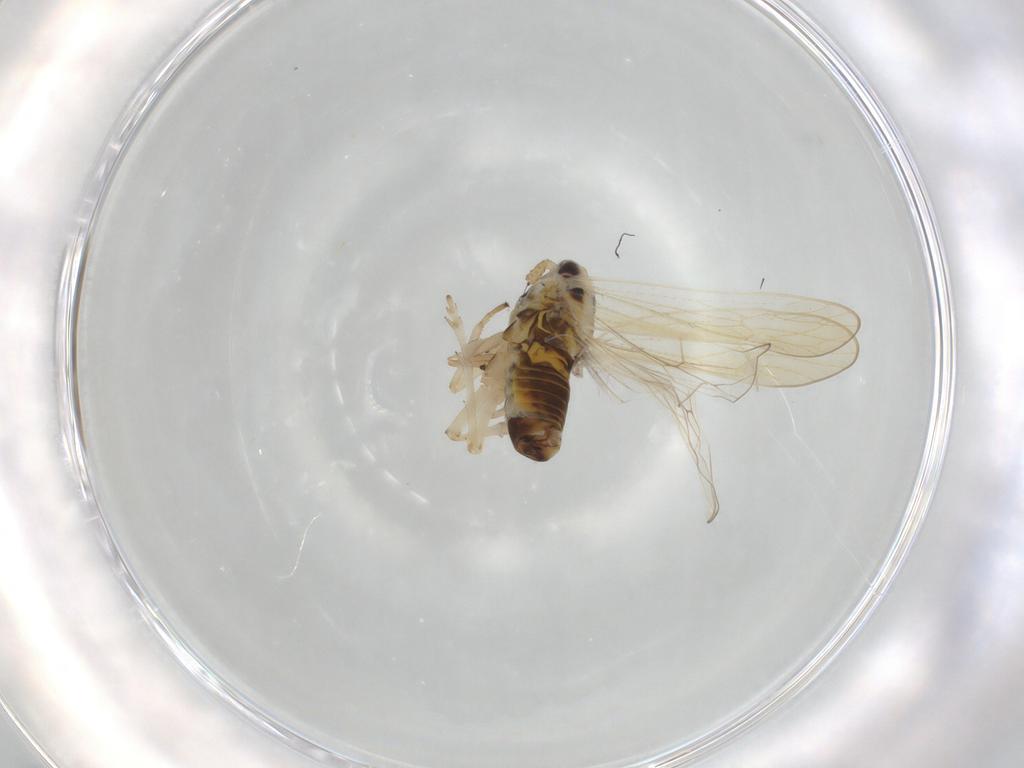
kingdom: Animalia
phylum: Arthropoda
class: Insecta
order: Hemiptera
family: Delphacidae
